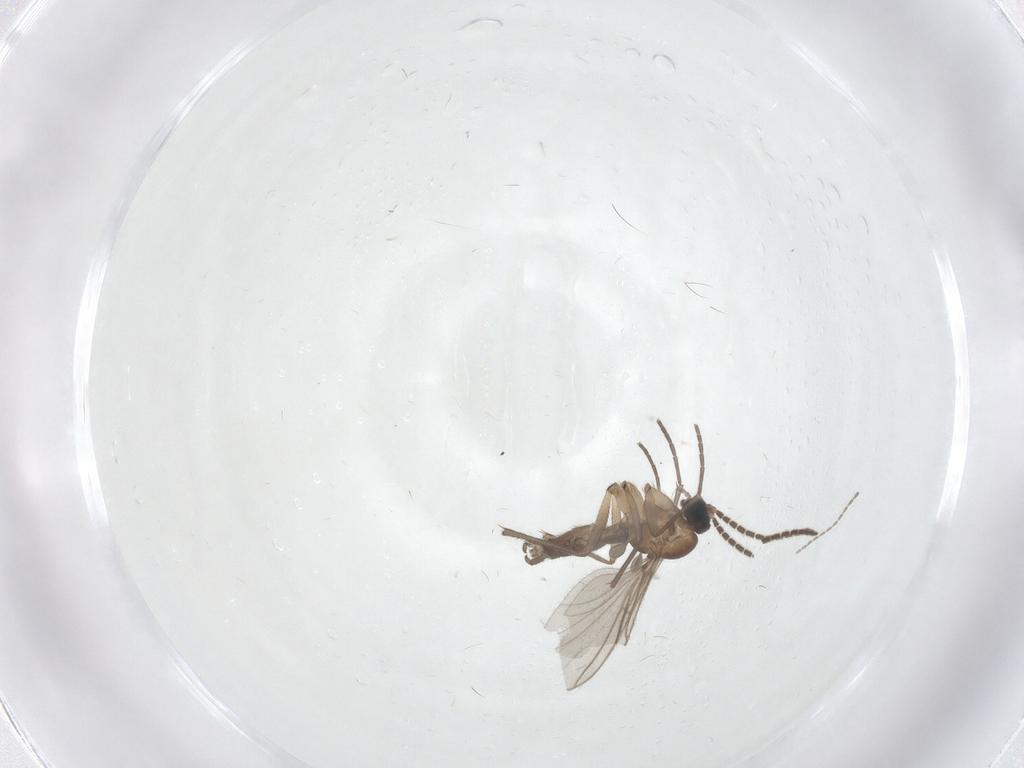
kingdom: Animalia
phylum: Arthropoda
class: Insecta
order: Diptera
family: Sciaridae
